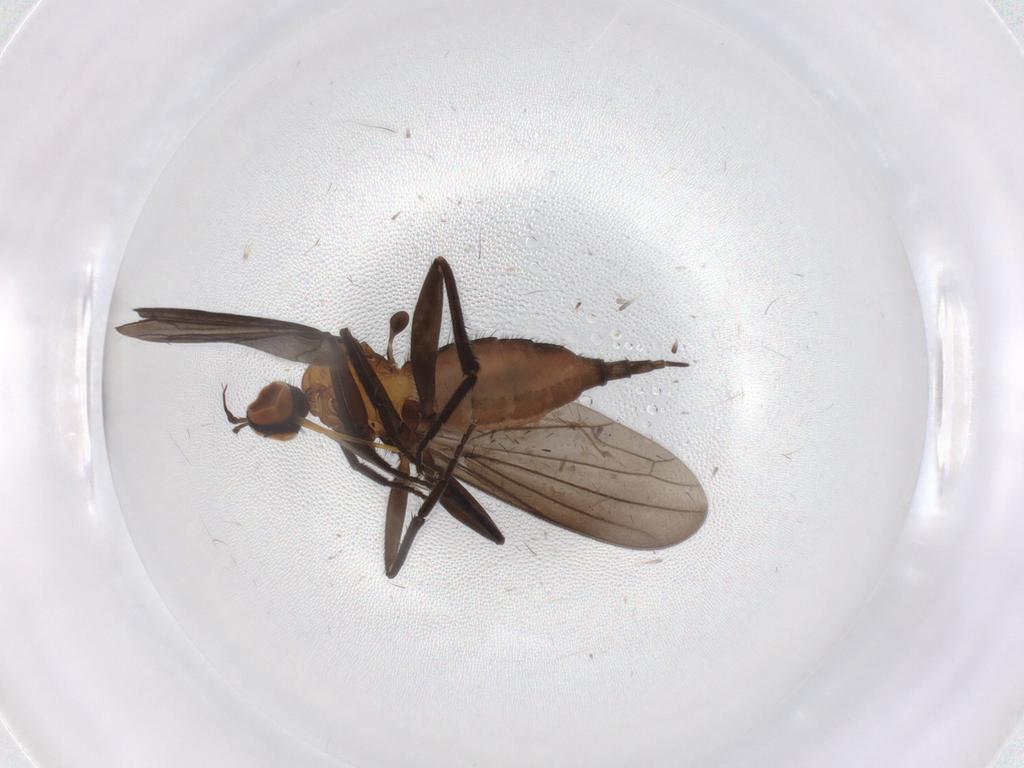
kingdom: Animalia
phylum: Arthropoda
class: Insecta
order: Diptera
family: Empididae
